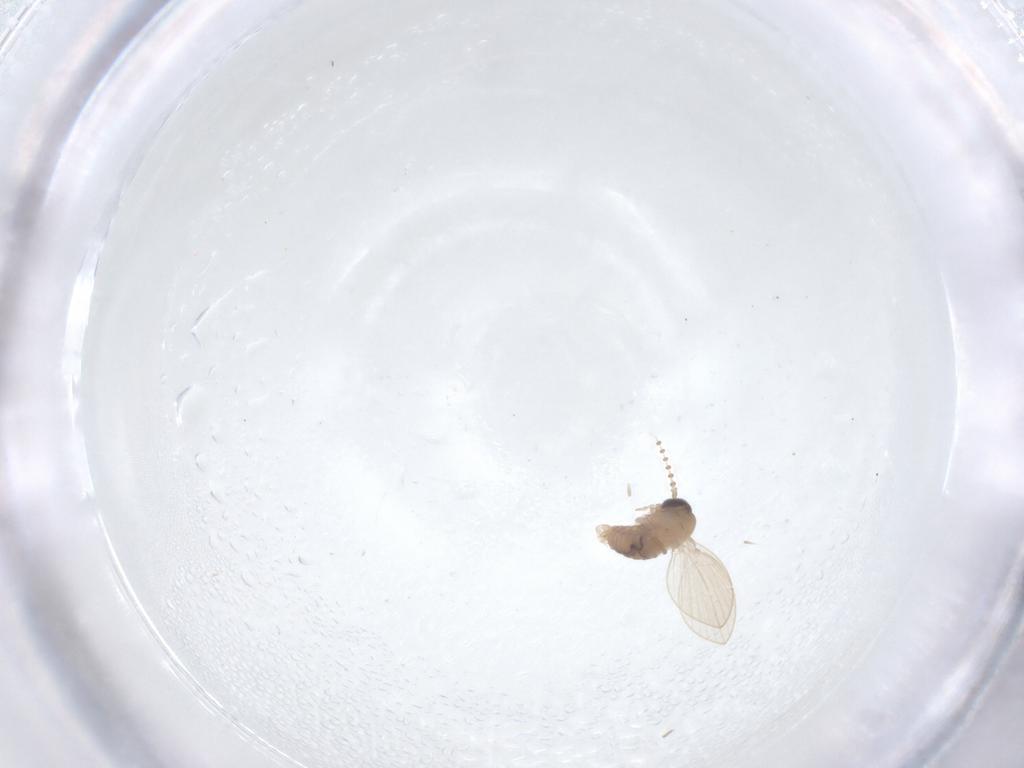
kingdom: Animalia
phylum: Arthropoda
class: Insecta
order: Diptera
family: Psychodidae
